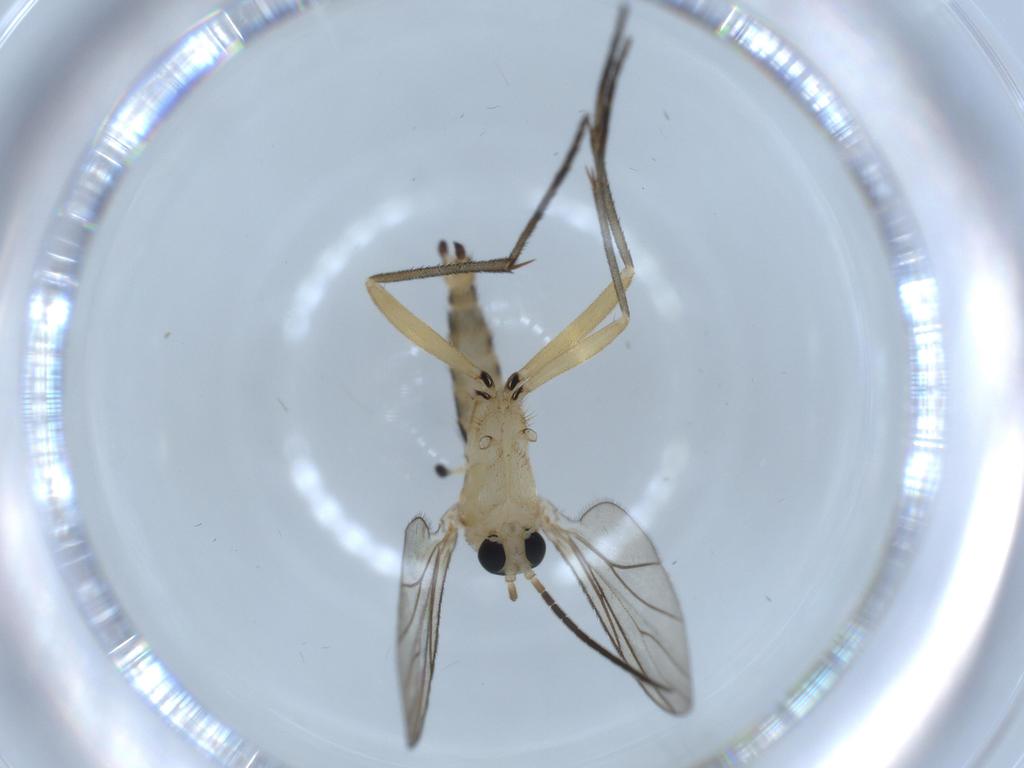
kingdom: Animalia
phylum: Arthropoda
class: Insecta
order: Diptera
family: Sciaridae
